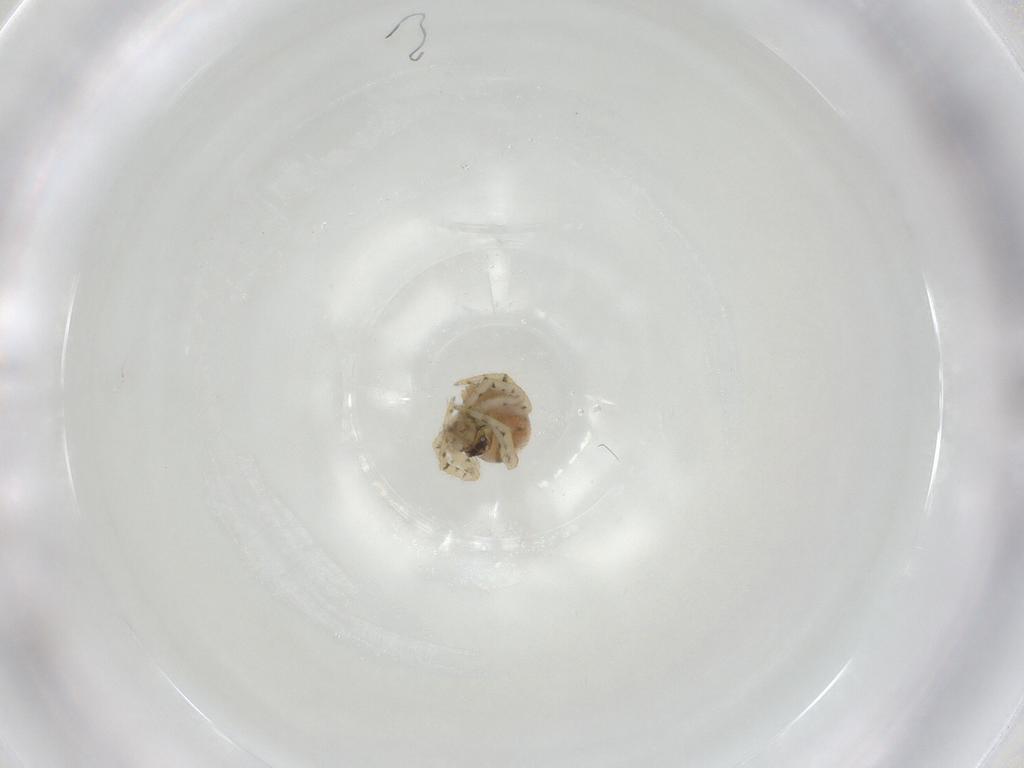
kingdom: Animalia
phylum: Arthropoda
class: Arachnida
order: Araneae
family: Theridiidae
